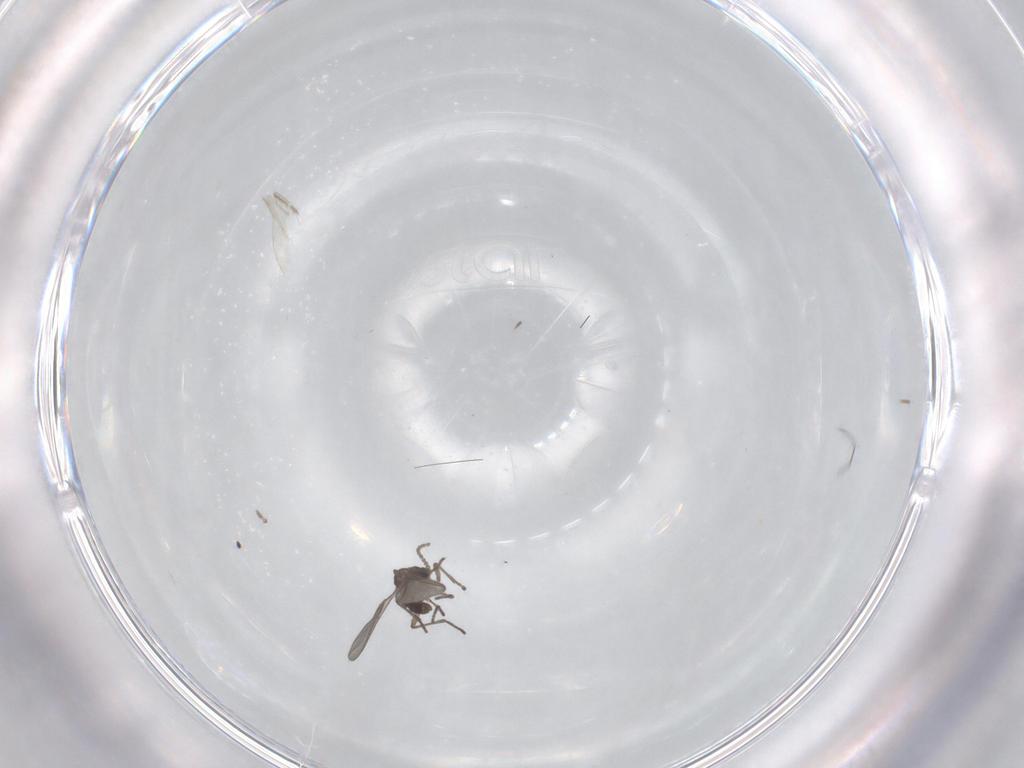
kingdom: Animalia
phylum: Arthropoda
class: Insecta
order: Diptera
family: Cecidomyiidae
